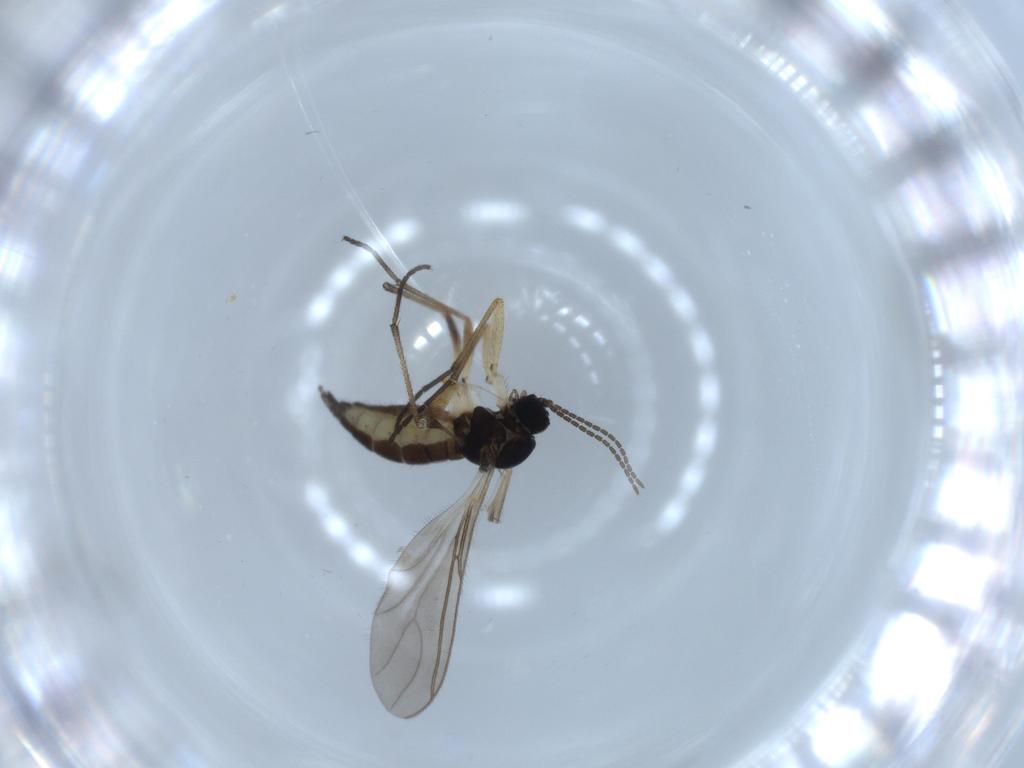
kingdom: Animalia
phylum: Arthropoda
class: Insecta
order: Diptera
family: Sciaridae
